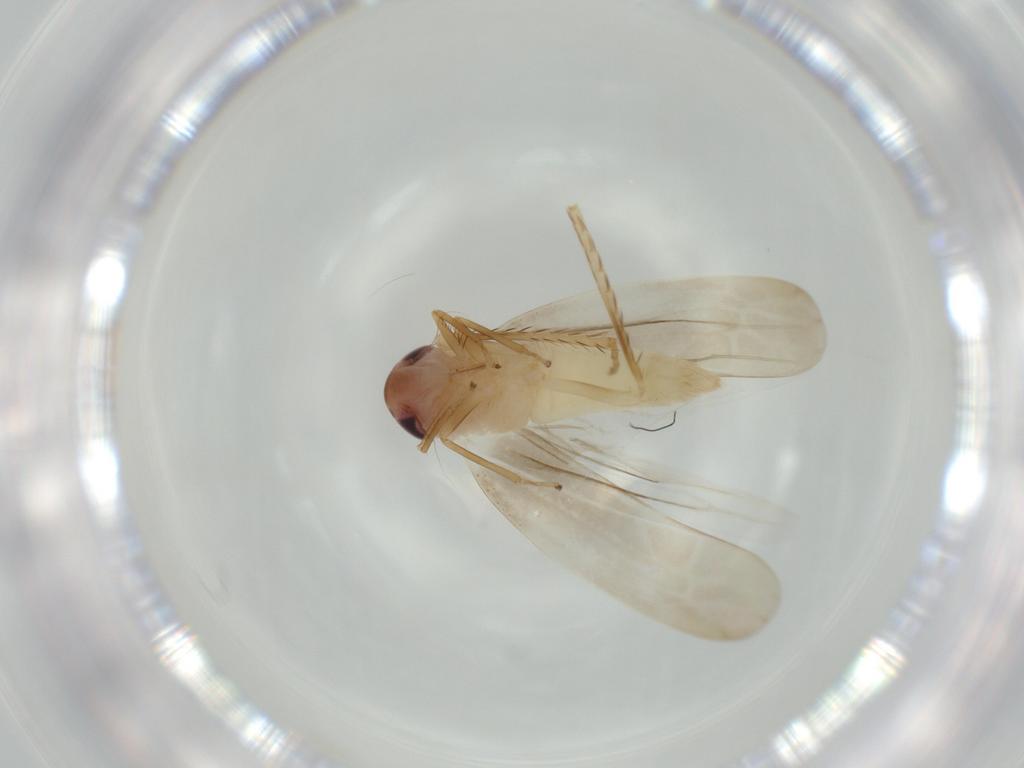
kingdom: Animalia
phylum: Arthropoda
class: Insecta
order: Hemiptera
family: Cicadellidae
